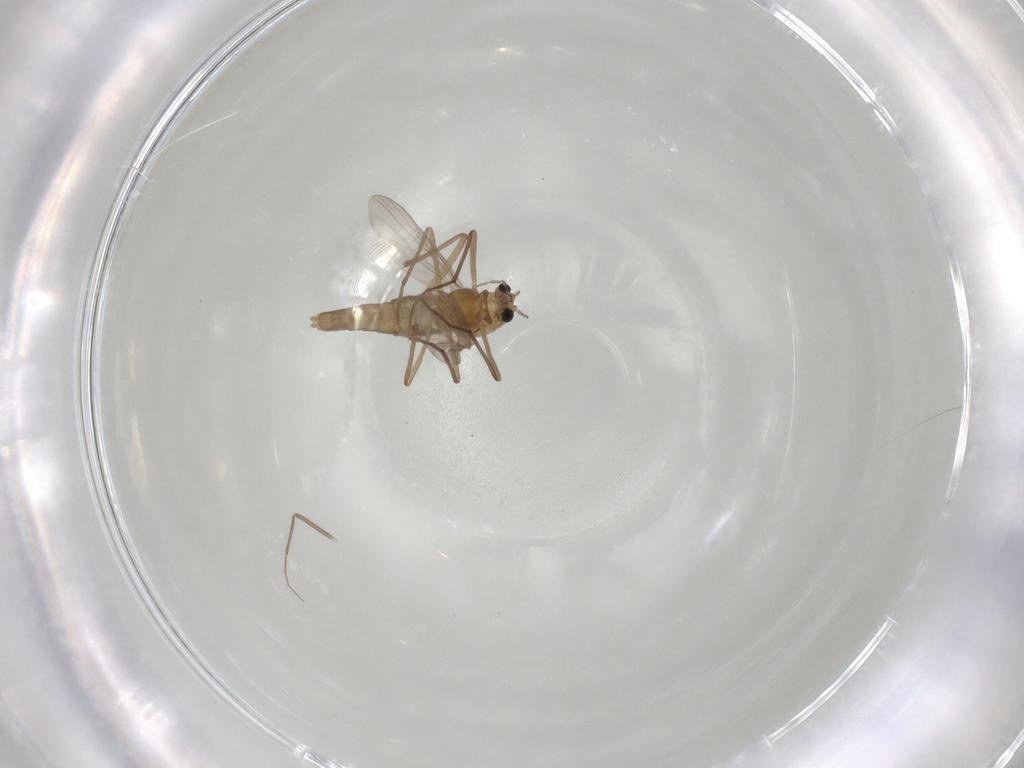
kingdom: Animalia
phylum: Arthropoda
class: Insecta
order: Diptera
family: Chironomidae
